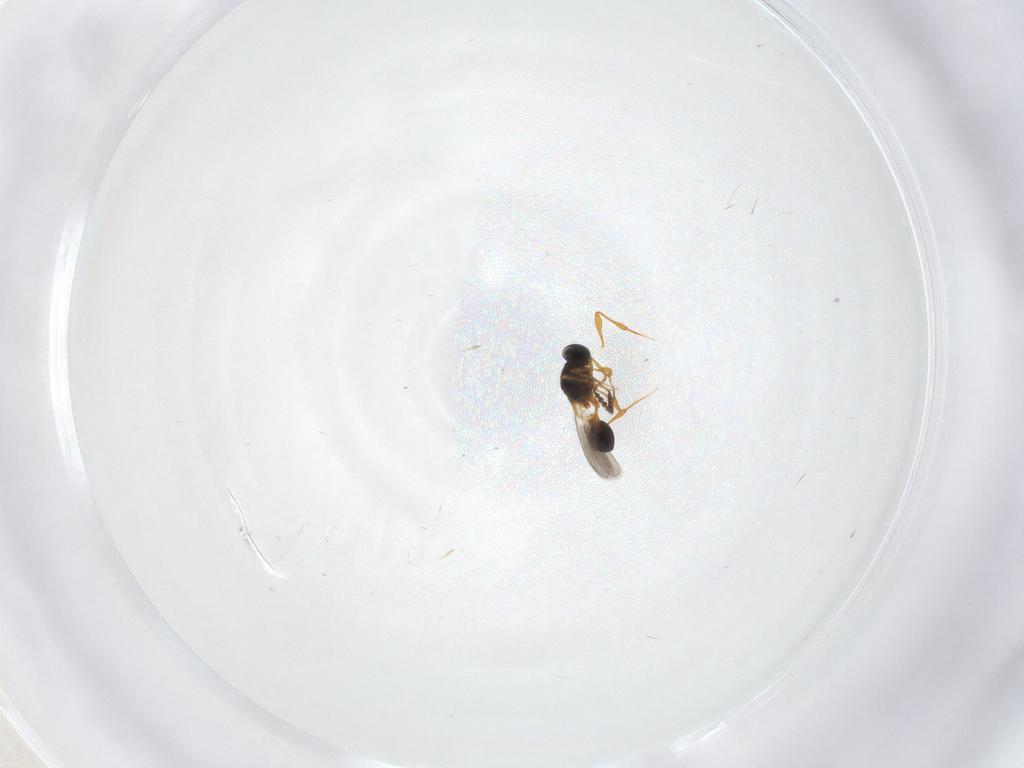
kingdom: Animalia
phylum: Arthropoda
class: Insecta
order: Hymenoptera
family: Platygastridae
